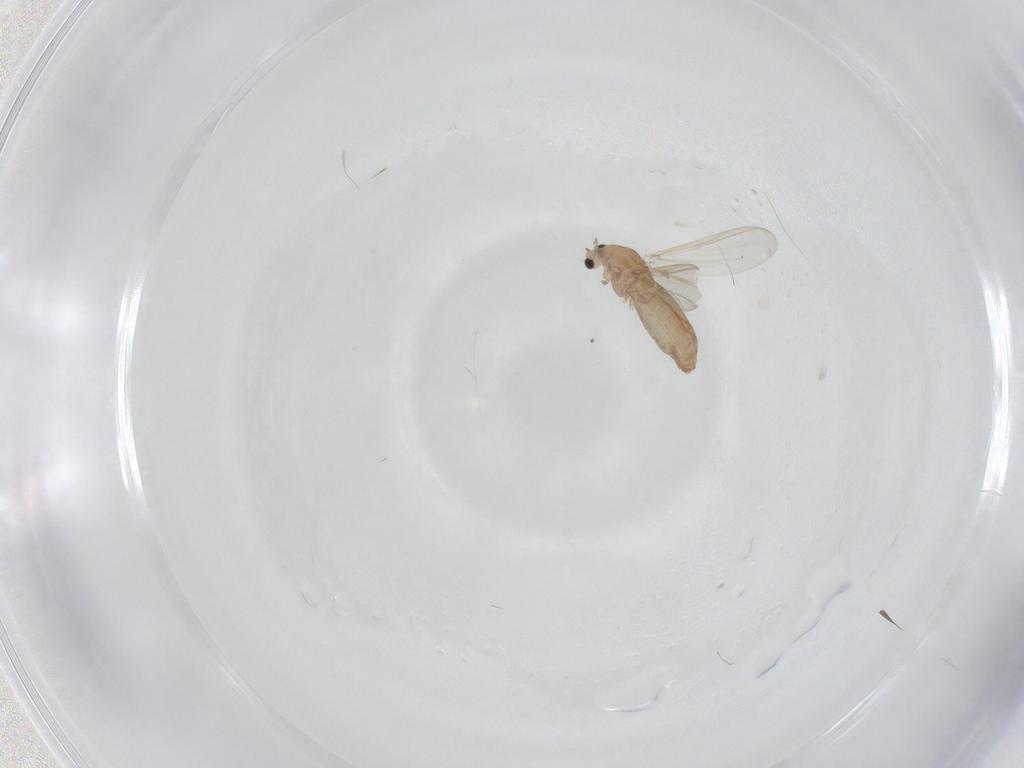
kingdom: Animalia
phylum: Arthropoda
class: Insecta
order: Diptera
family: Chironomidae
